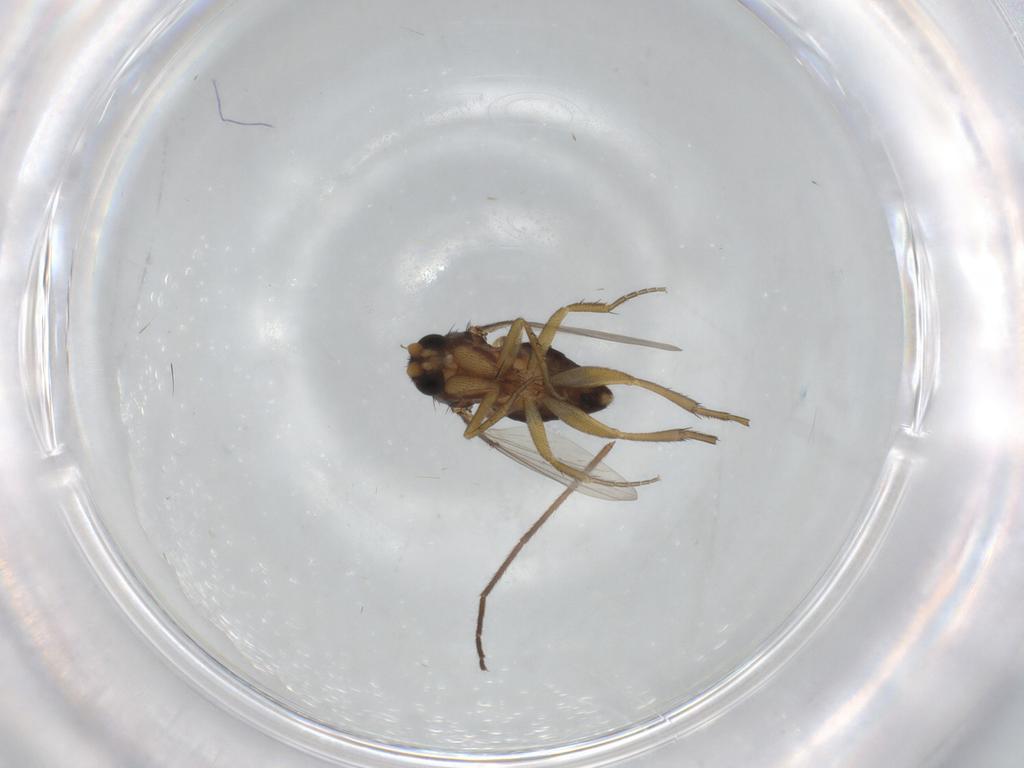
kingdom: Animalia
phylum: Arthropoda
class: Insecta
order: Diptera
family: Phoridae
